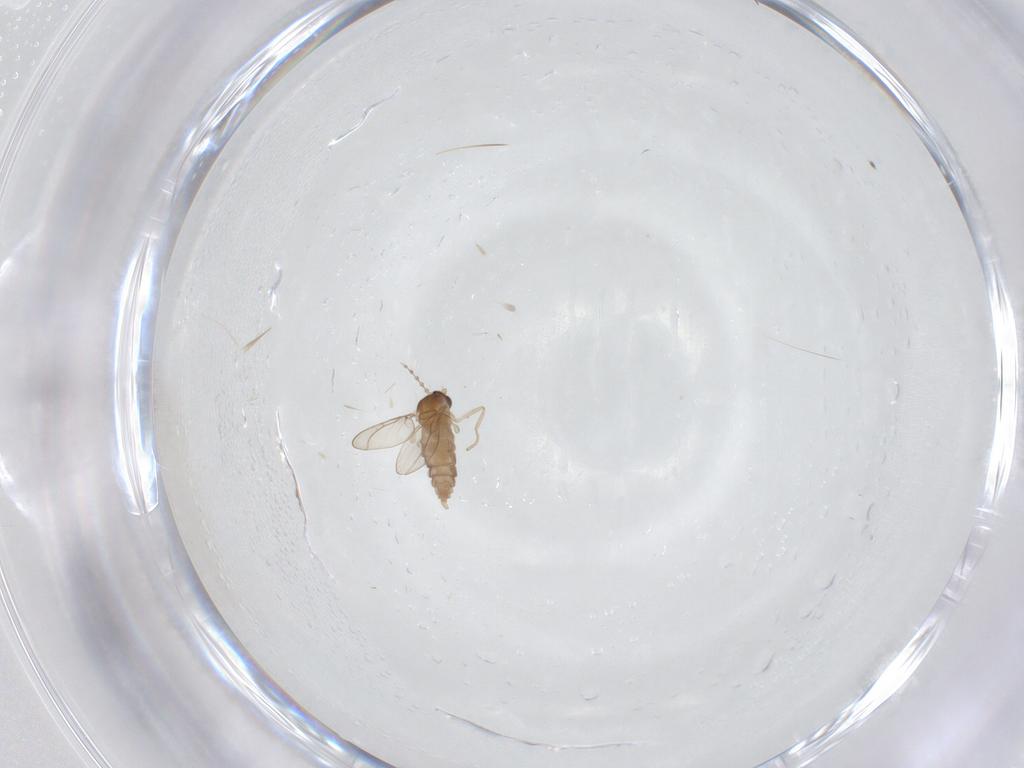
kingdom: Animalia
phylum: Arthropoda
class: Insecta
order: Diptera
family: Cecidomyiidae
